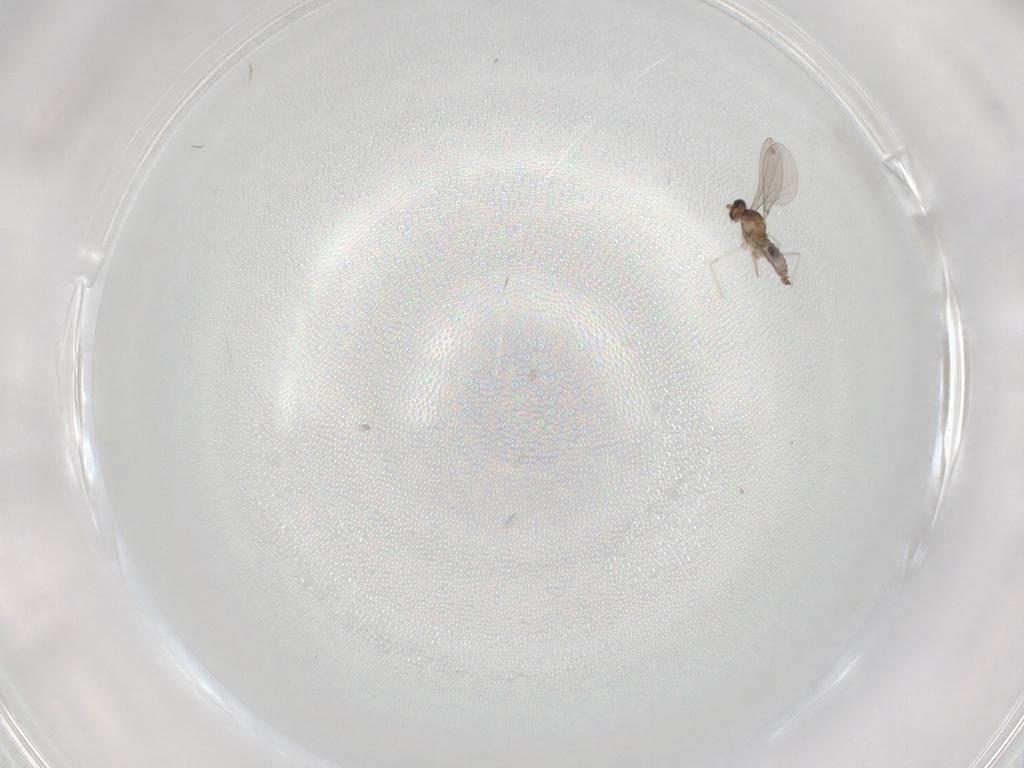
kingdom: Animalia
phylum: Arthropoda
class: Insecta
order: Diptera
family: Cecidomyiidae
